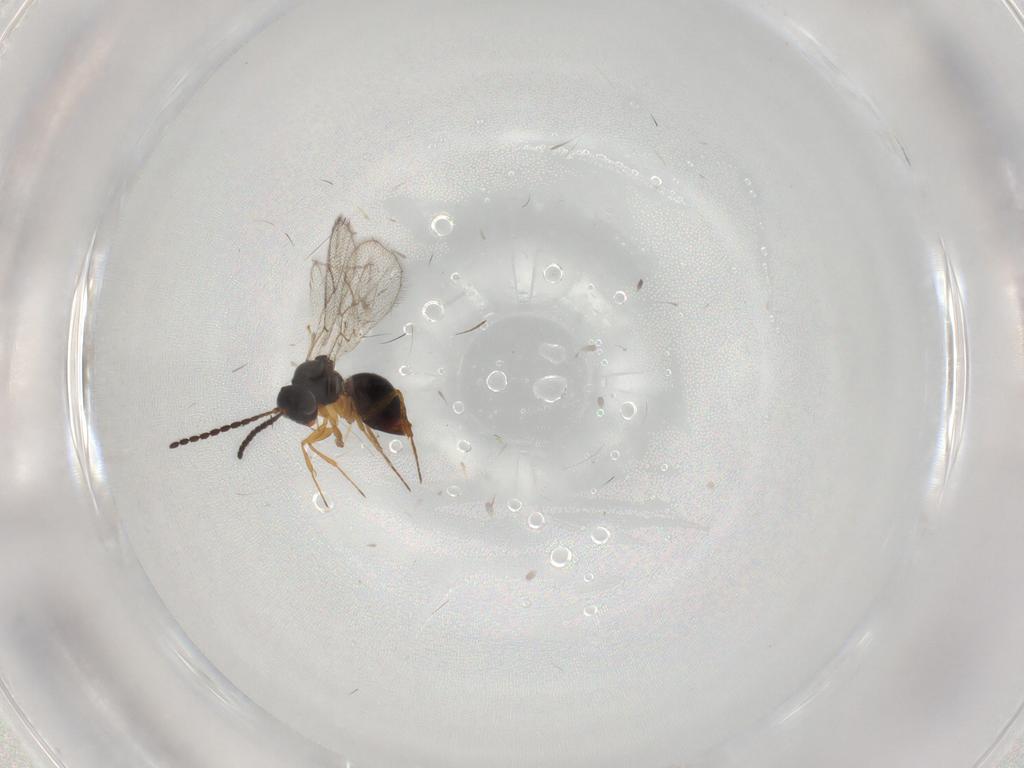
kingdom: Animalia
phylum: Arthropoda
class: Insecta
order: Hymenoptera
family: Figitidae
